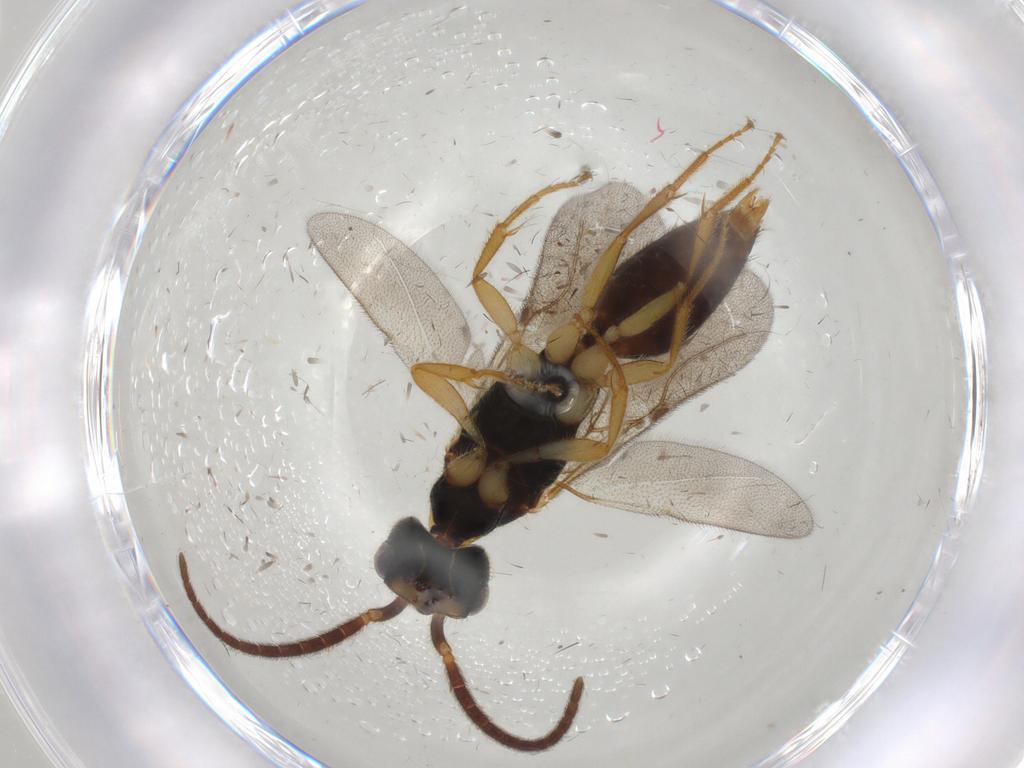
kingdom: Animalia
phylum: Arthropoda
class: Insecta
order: Hymenoptera
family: Bethylidae
